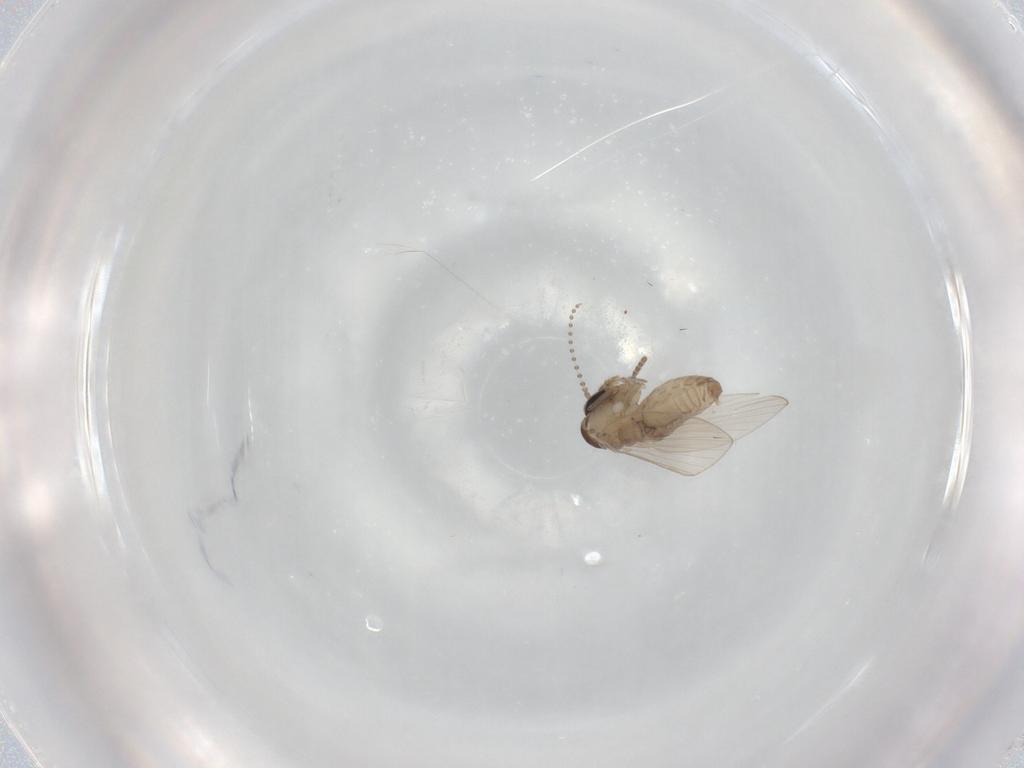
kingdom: Animalia
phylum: Arthropoda
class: Insecta
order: Diptera
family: Psychodidae
